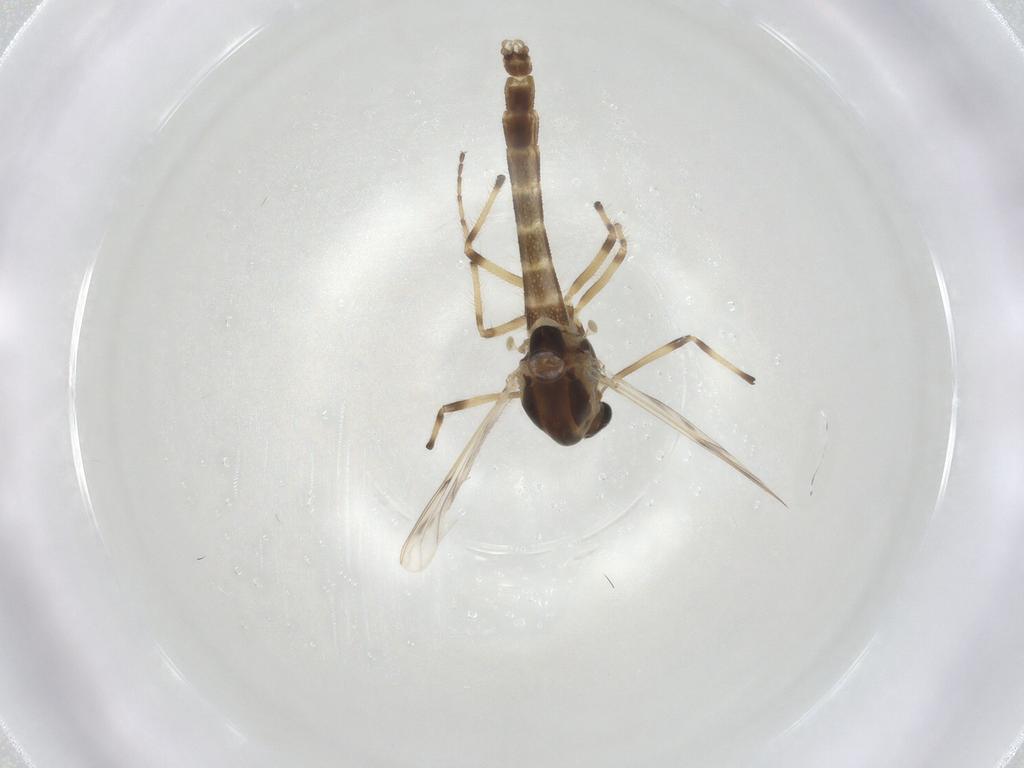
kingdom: Animalia
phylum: Arthropoda
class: Insecta
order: Diptera
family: Chironomidae
